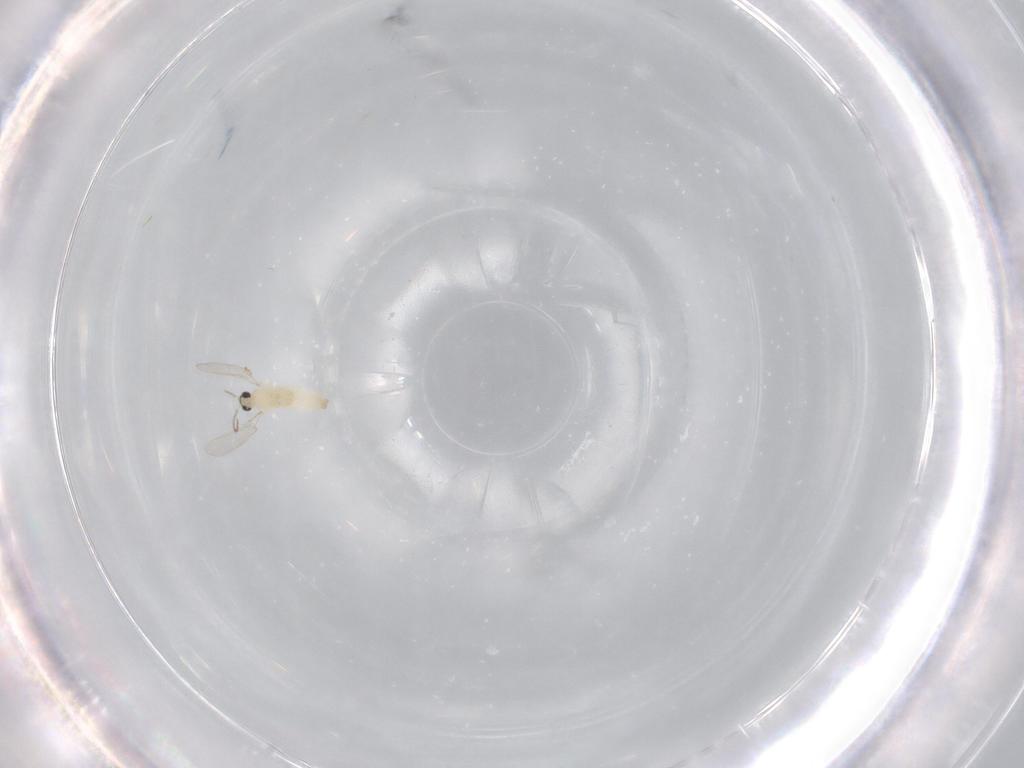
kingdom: Animalia
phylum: Arthropoda
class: Insecta
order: Diptera
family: Cecidomyiidae
